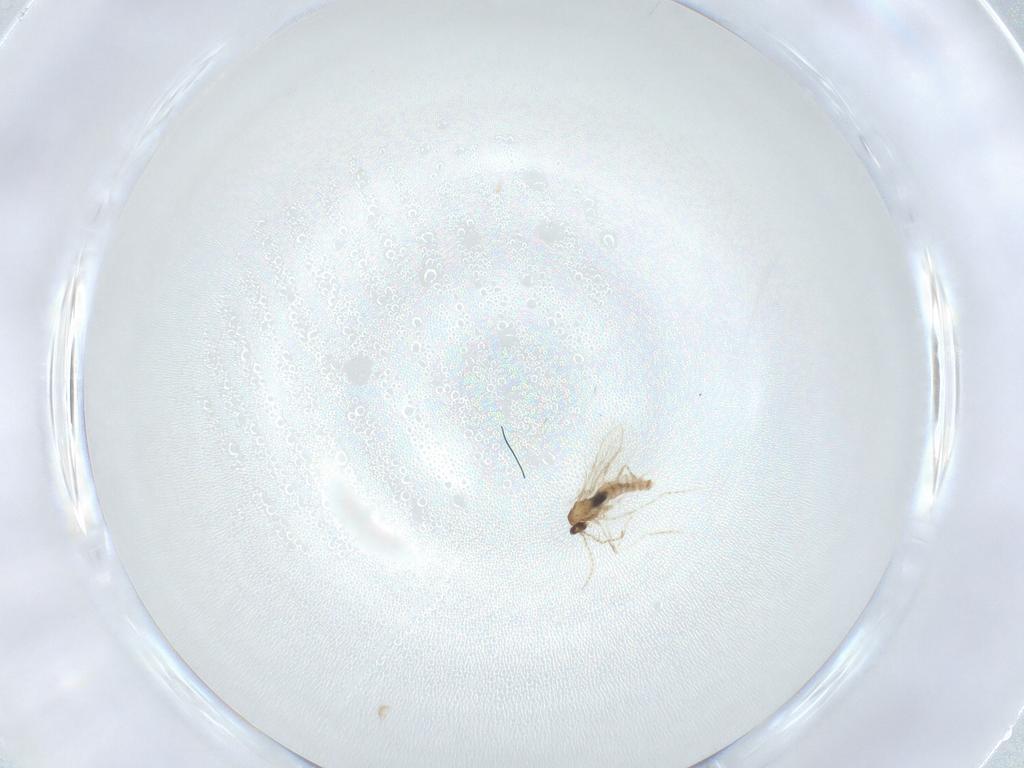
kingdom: Animalia
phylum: Arthropoda
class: Insecta
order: Diptera
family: Cecidomyiidae
